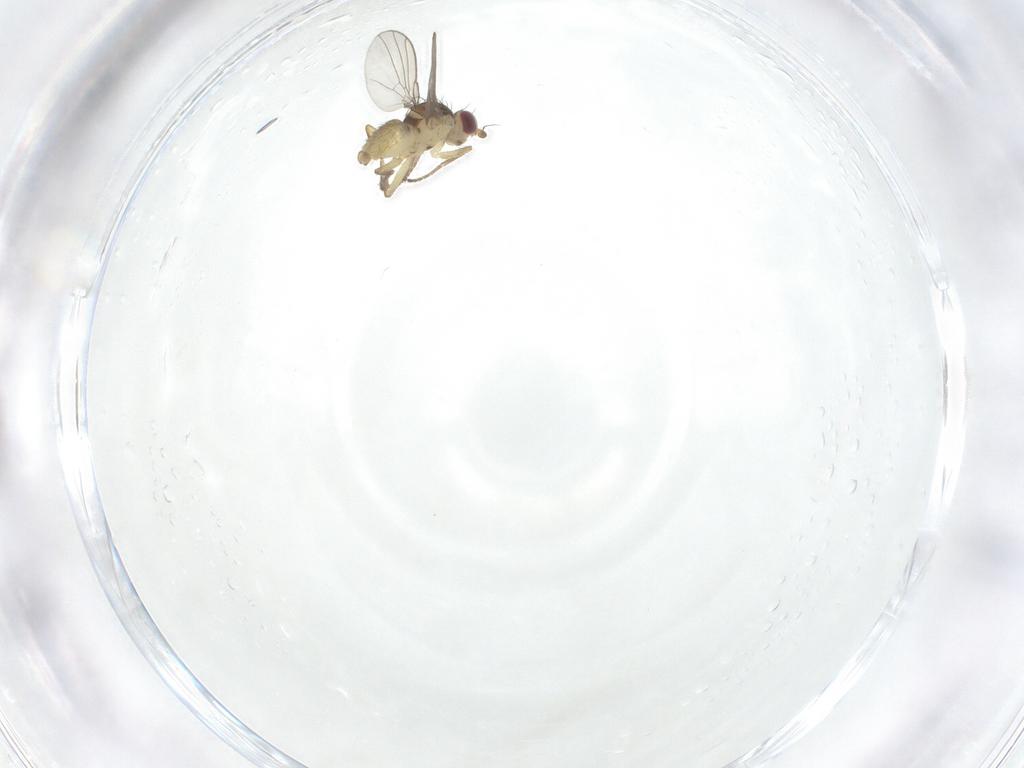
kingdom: Animalia
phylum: Arthropoda
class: Insecta
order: Diptera
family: Agromyzidae
